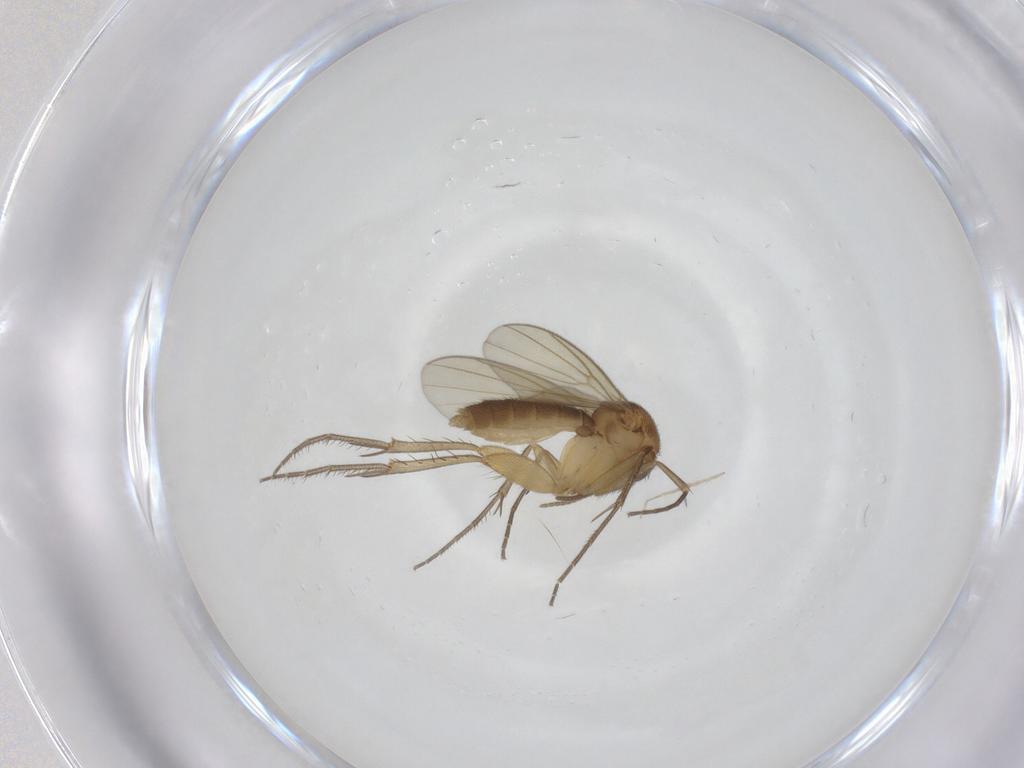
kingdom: Animalia
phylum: Arthropoda
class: Insecta
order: Diptera
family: Mycetophilidae
